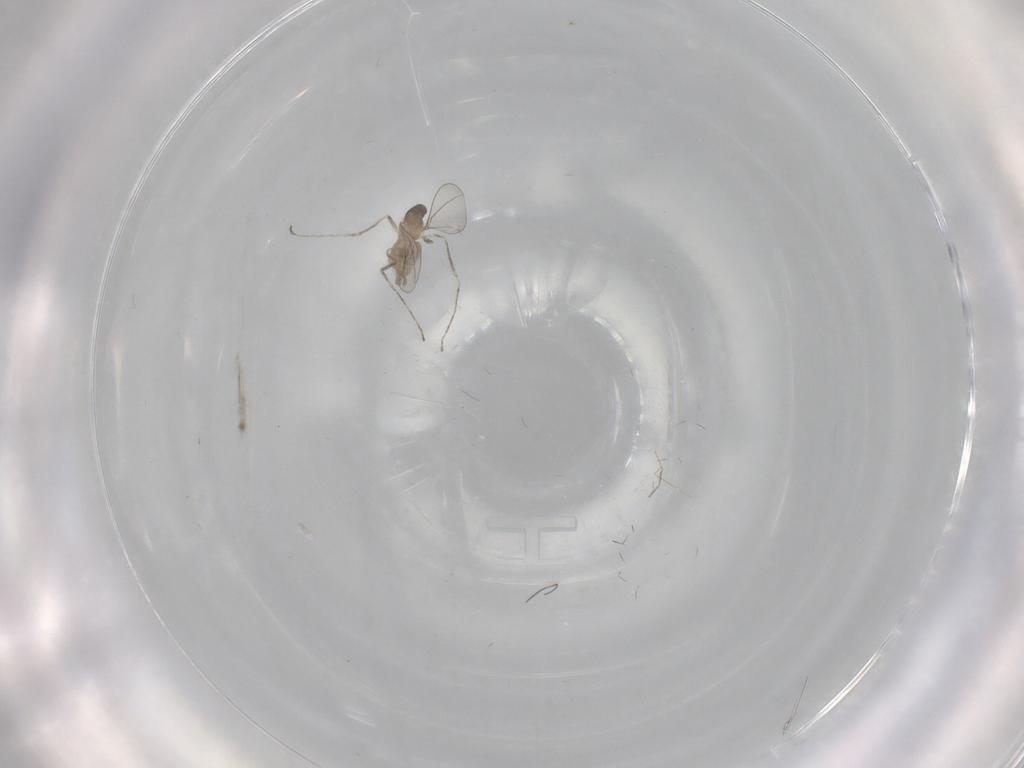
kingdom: Animalia
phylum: Arthropoda
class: Insecta
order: Diptera
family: Cecidomyiidae
